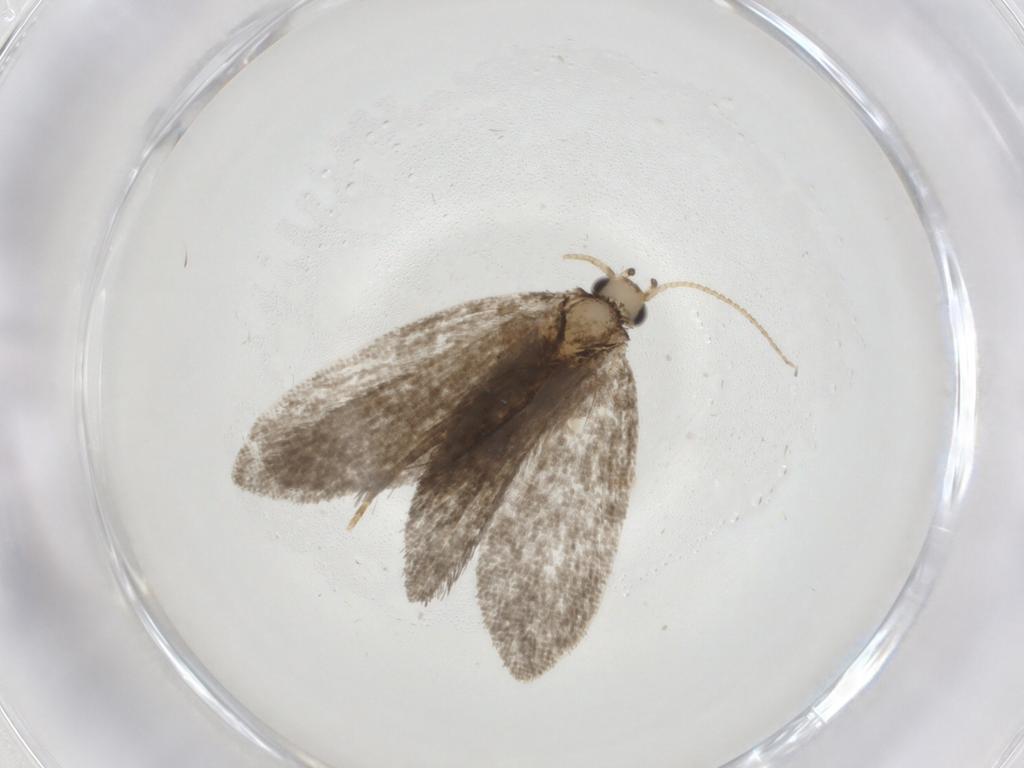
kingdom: Animalia
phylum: Arthropoda
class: Insecta
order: Lepidoptera
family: Psychidae
